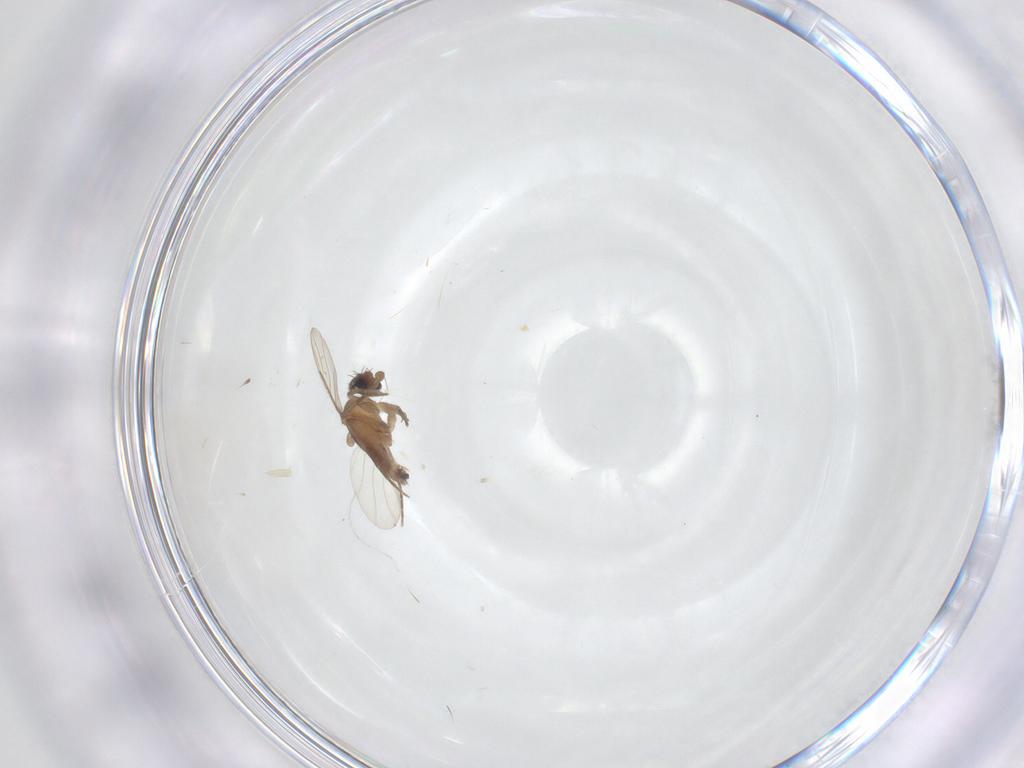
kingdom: Animalia
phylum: Arthropoda
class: Insecta
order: Diptera
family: Phoridae
